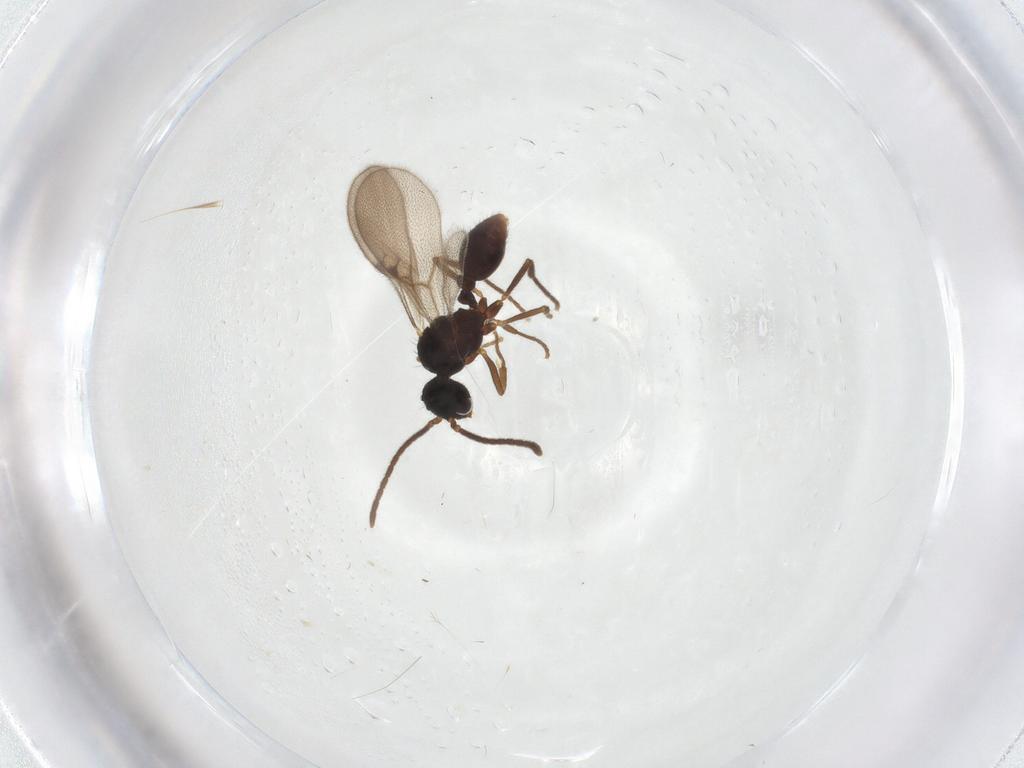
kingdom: Animalia
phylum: Arthropoda
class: Insecta
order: Hymenoptera
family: Formicidae
